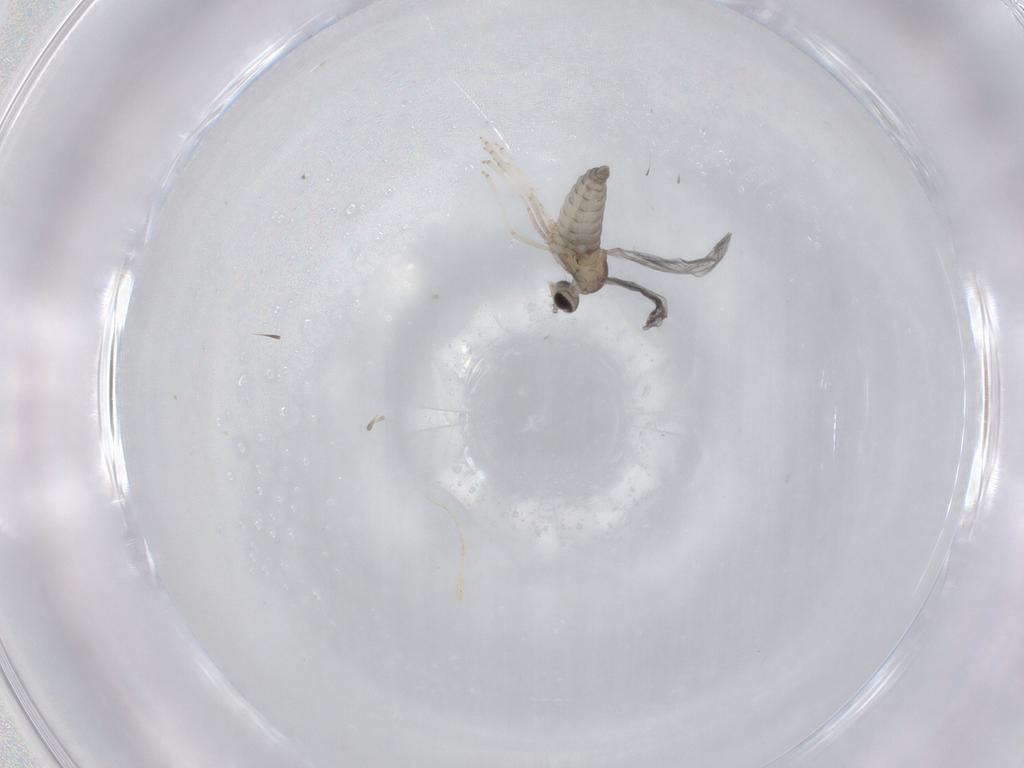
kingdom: Animalia
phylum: Arthropoda
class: Insecta
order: Diptera
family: Cecidomyiidae
